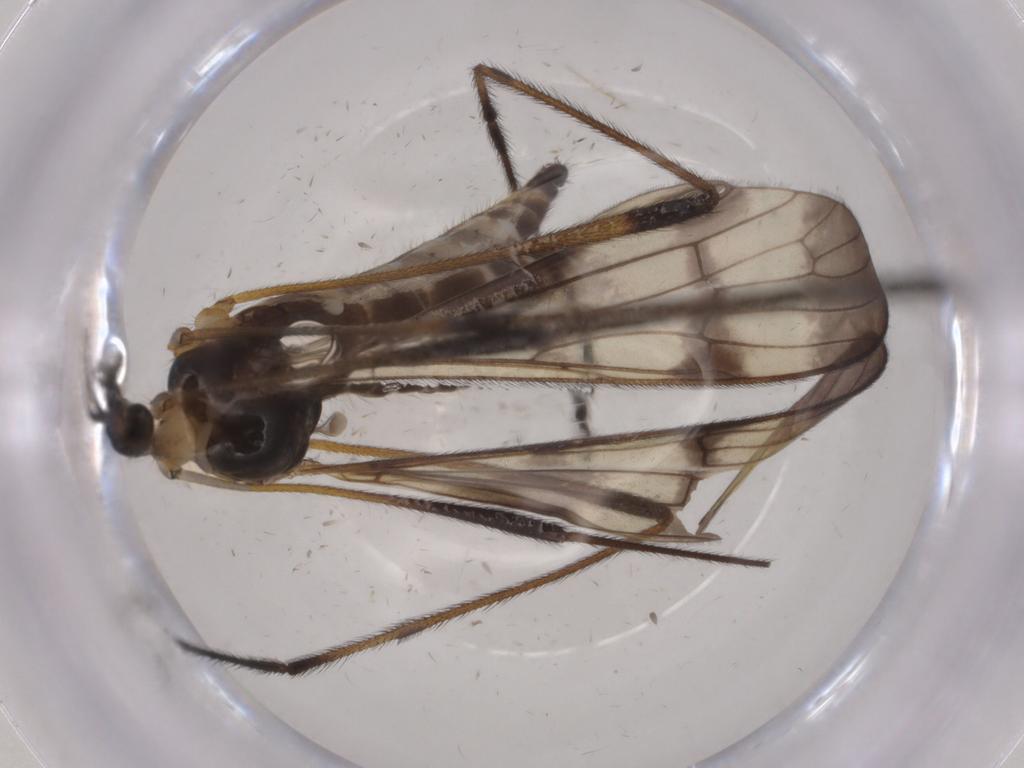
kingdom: Animalia
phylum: Arthropoda
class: Insecta
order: Diptera
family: Limoniidae
